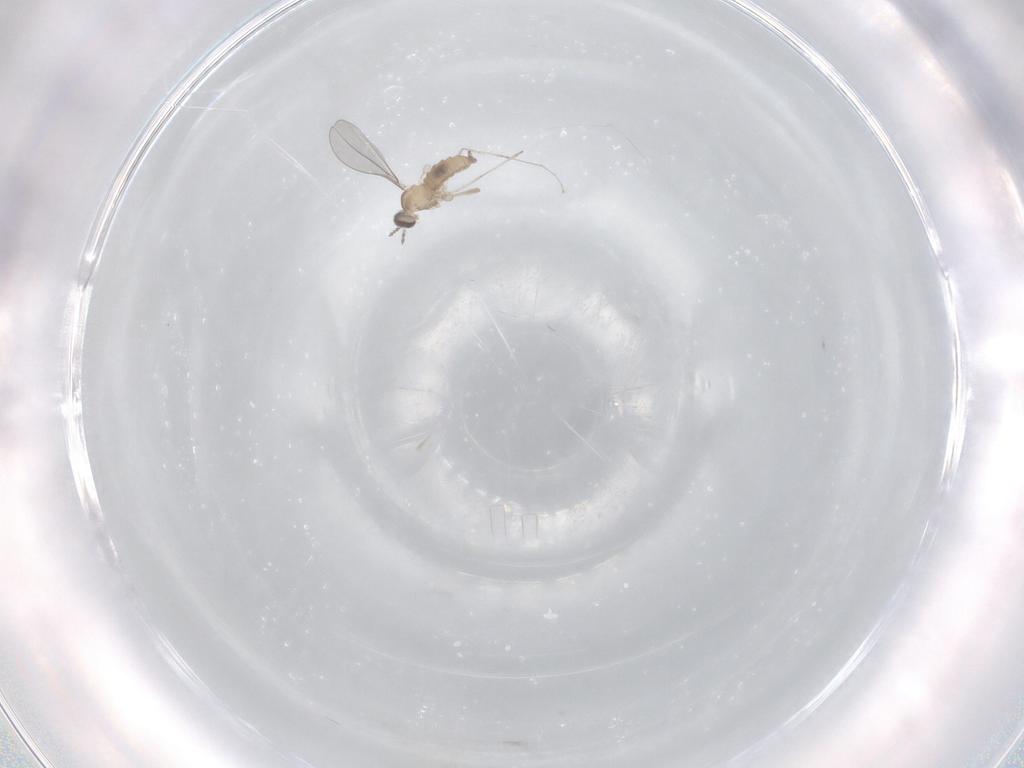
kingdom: Animalia
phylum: Arthropoda
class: Insecta
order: Diptera
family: Cecidomyiidae
